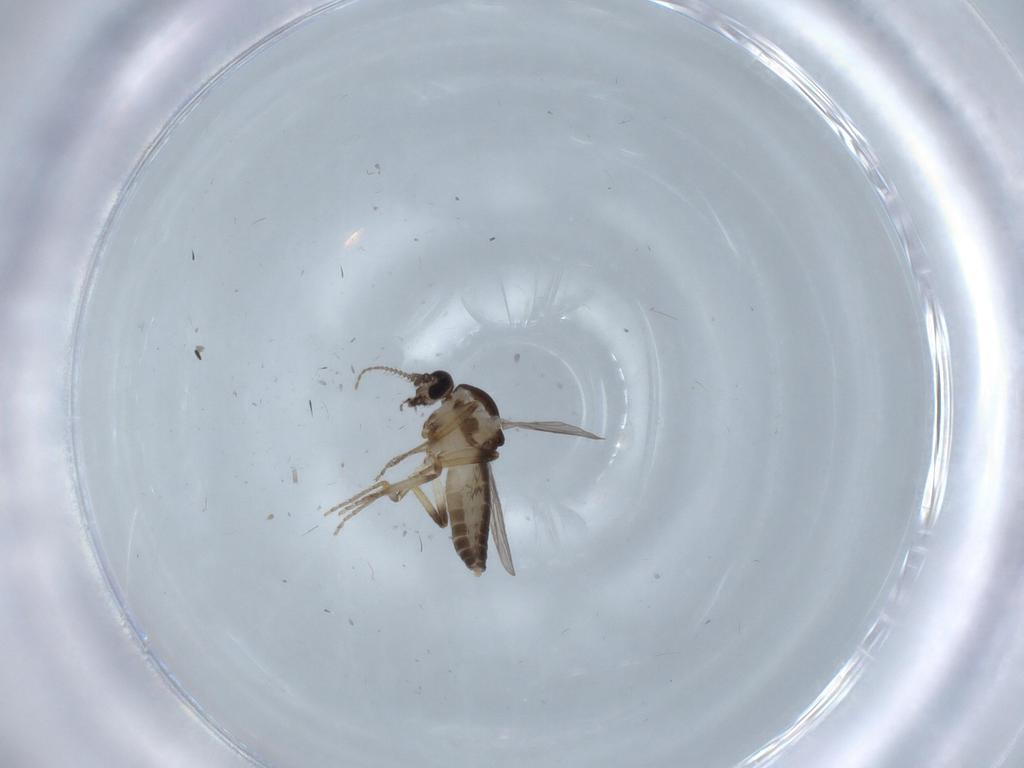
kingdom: Animalia
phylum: Arthropoda
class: Insecta
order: Diptera
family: Ceratopogonidae
